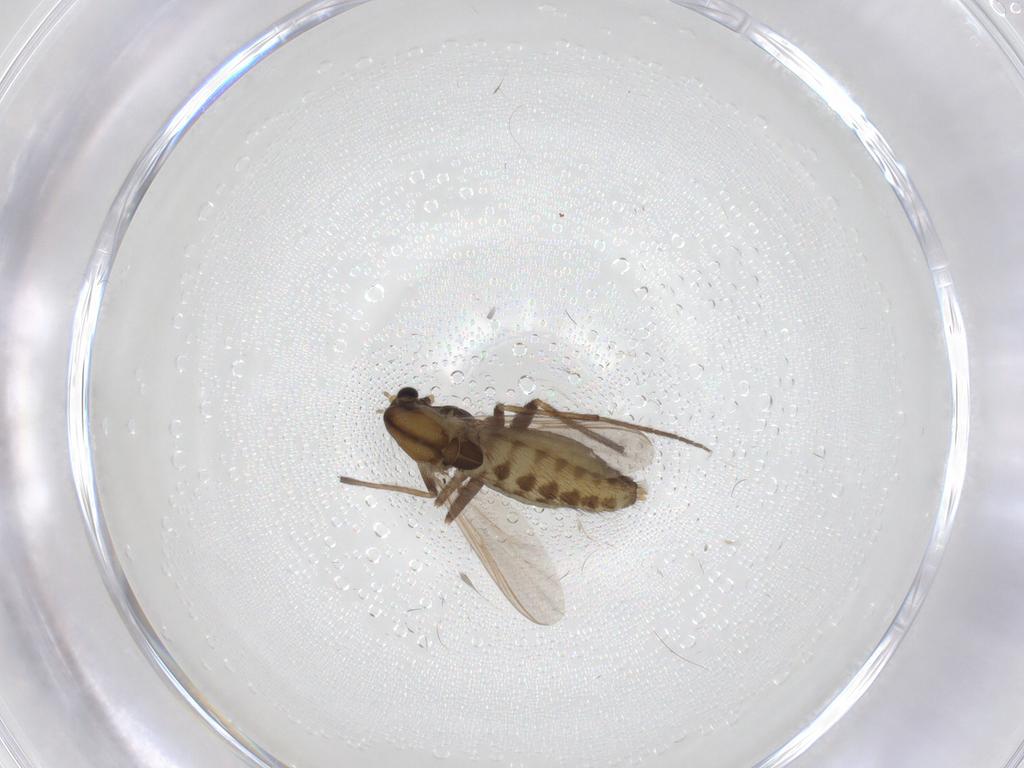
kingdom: Animalia
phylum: Arthropoda
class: Insecta
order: Diptera
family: Chironomidae
